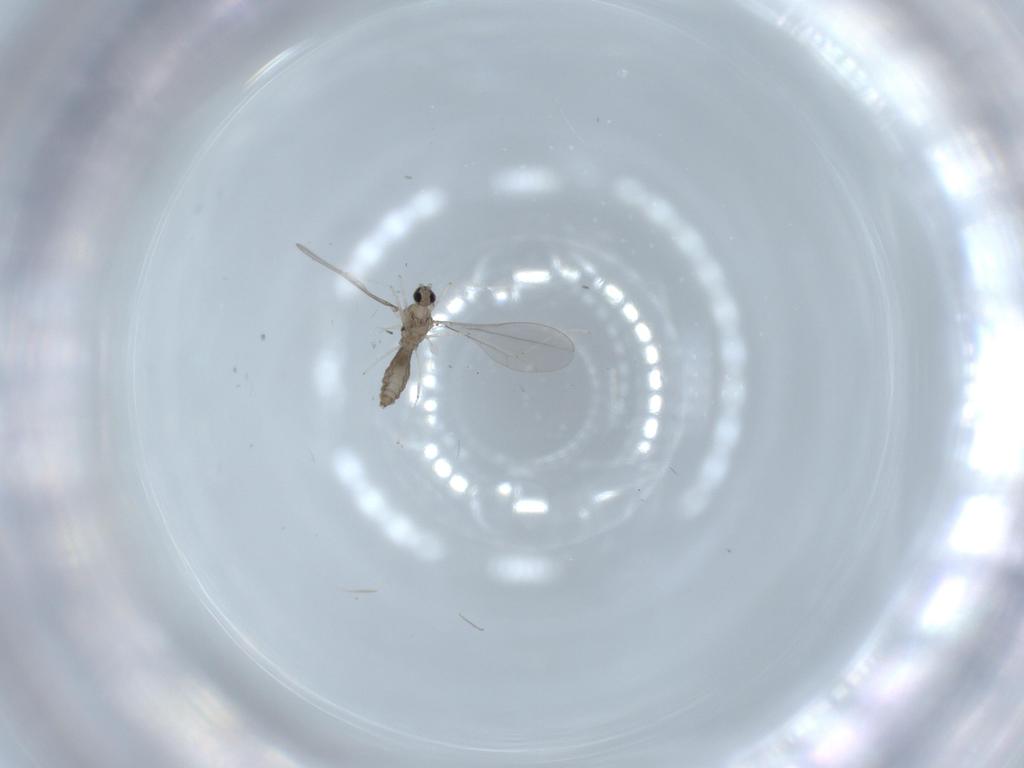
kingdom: Animalia
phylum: Arthropoda
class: Insecta
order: Diptera
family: Cecidomyiidae
